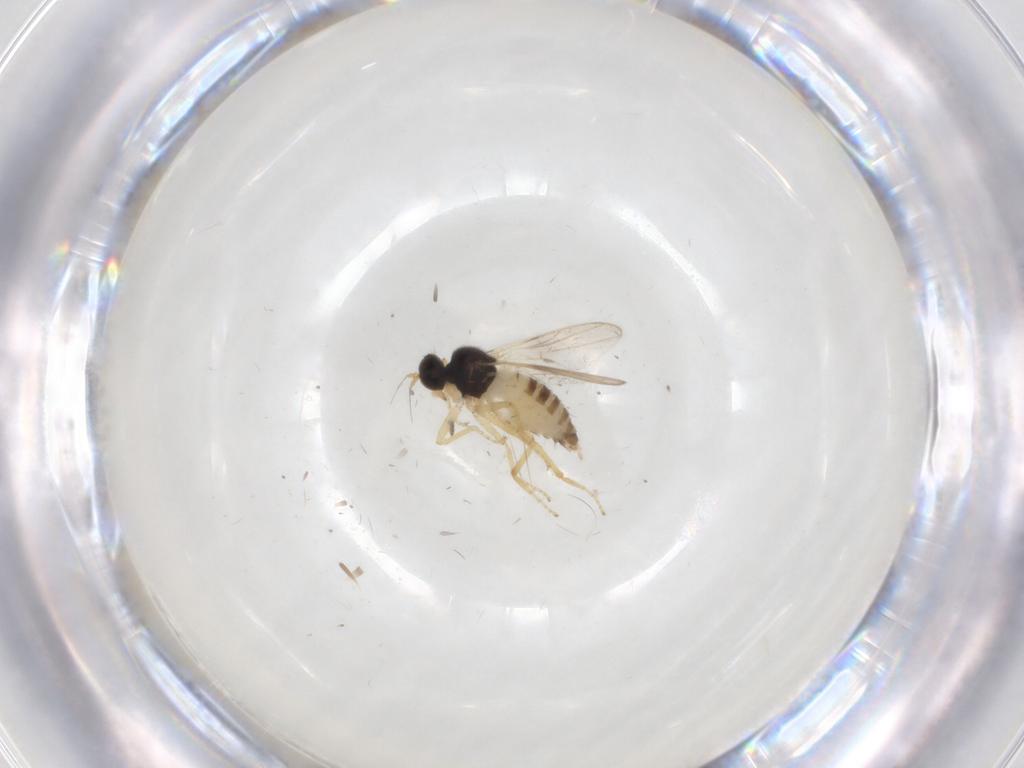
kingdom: Animalia
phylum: Arthropoda
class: Insecta
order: Diptera
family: Hybotidae
